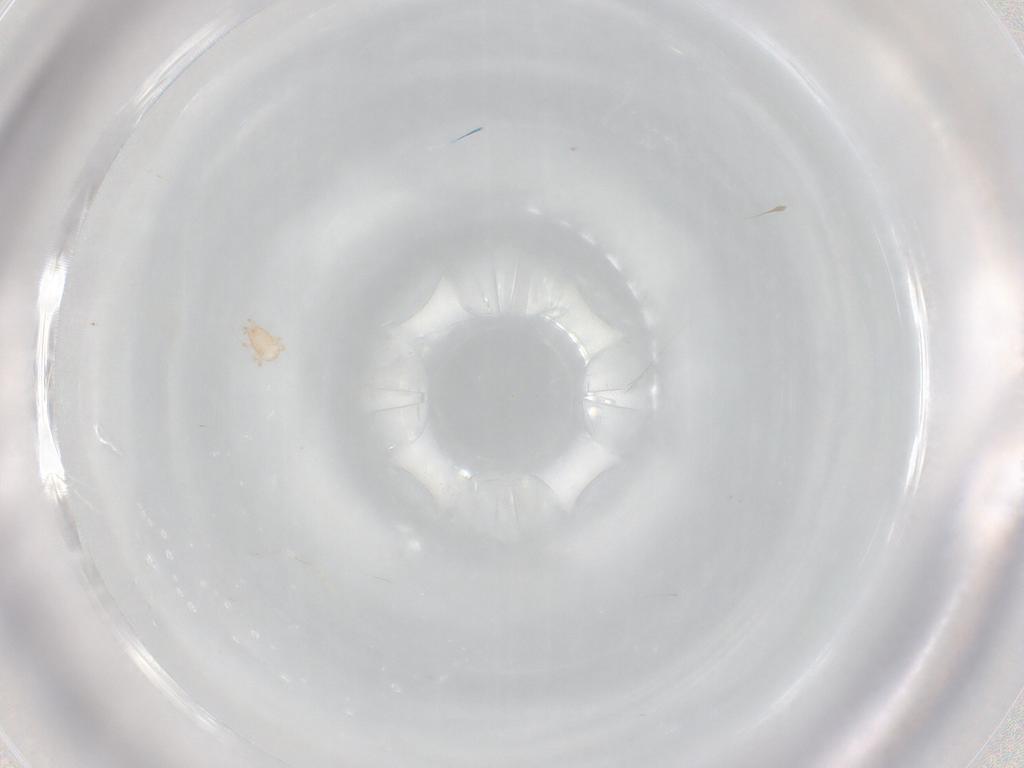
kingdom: Animalia
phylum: Arthropoda
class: Arachnida
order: Mesostigmata
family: Ascidae
